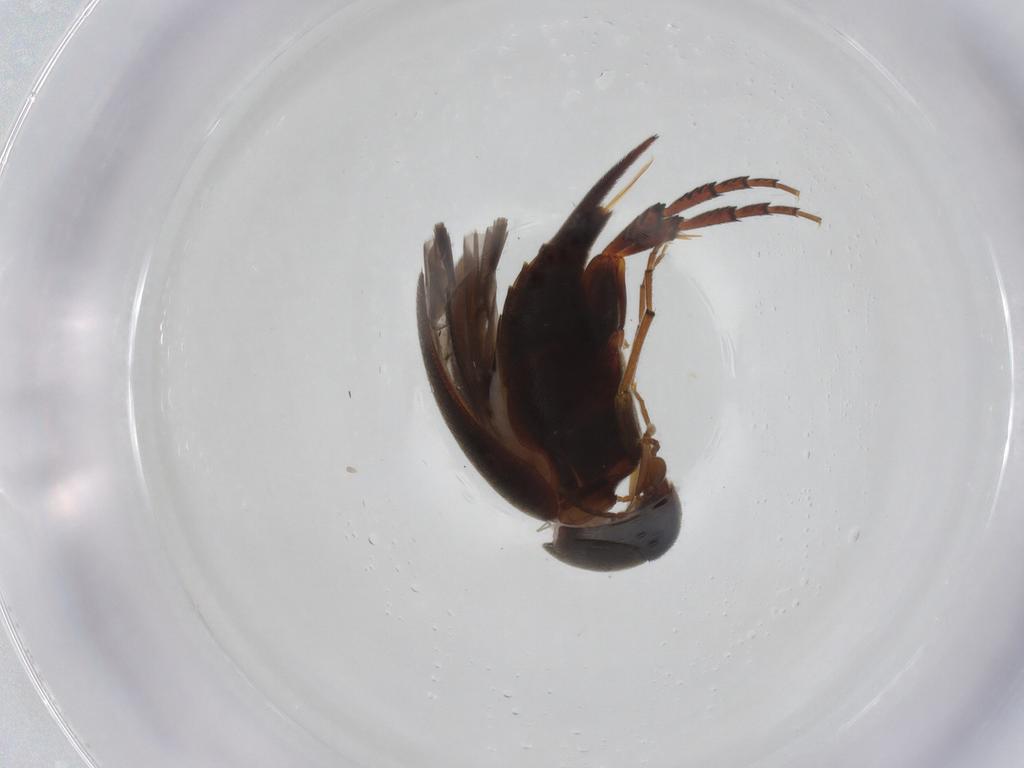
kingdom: Animalia
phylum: Arthropoda
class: Insecta
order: Coleoptera
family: Mordellidae
